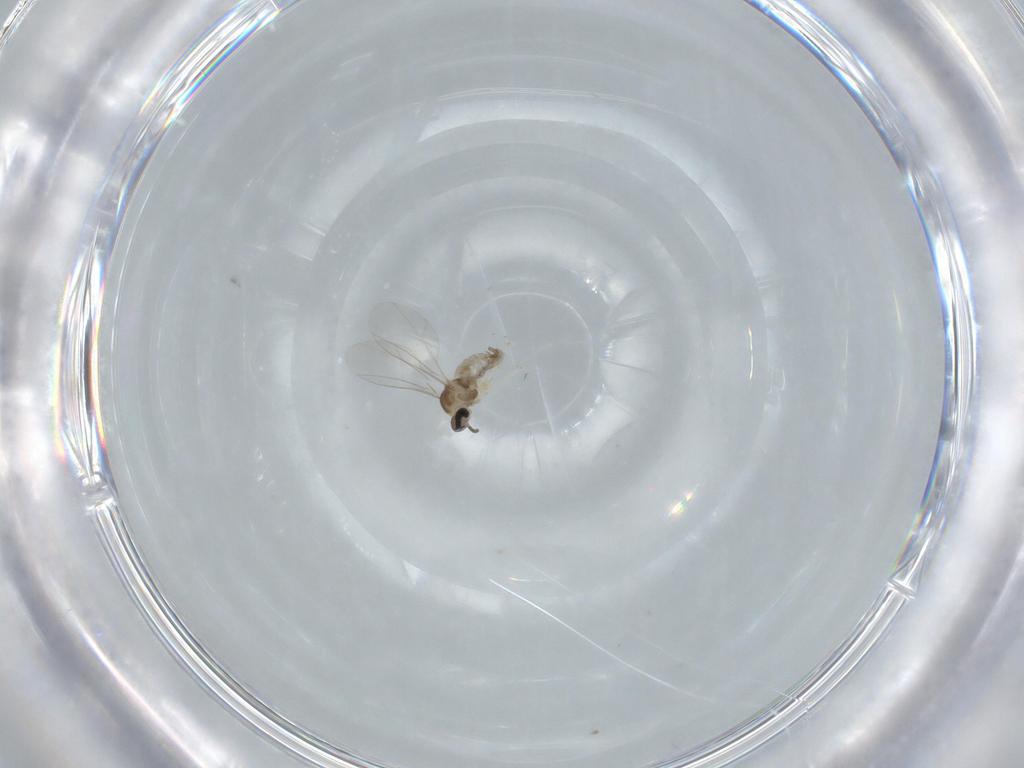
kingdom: Animalia
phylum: Arthropoda
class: Insecta
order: Diptera
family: Cecidomyiidae
